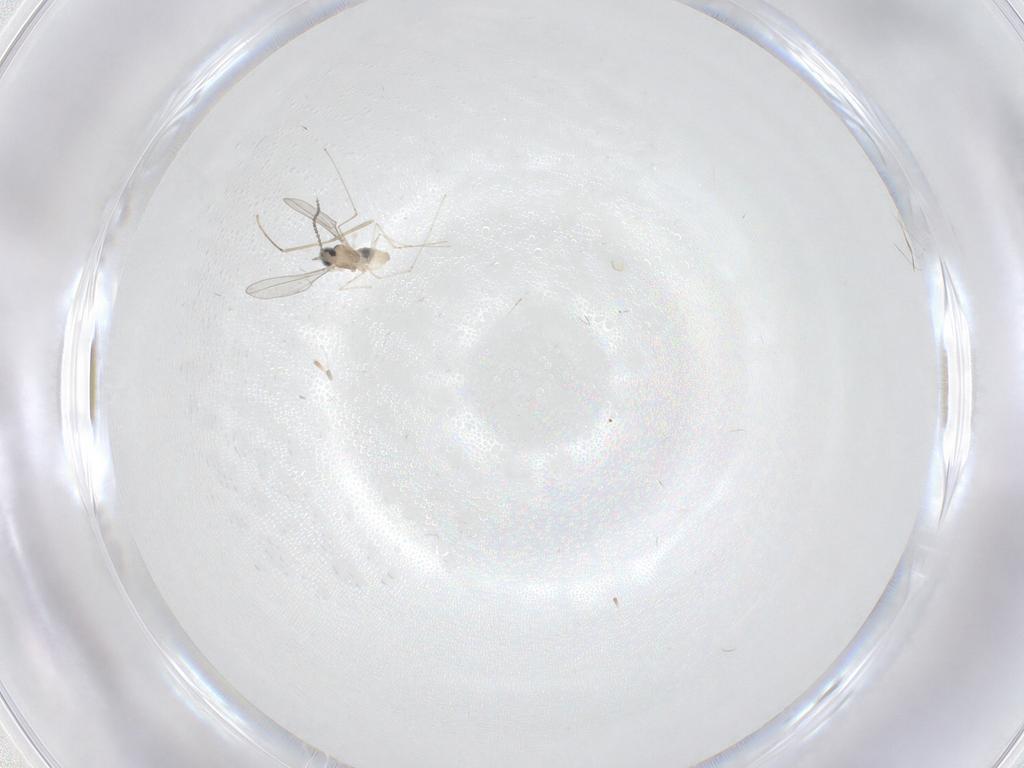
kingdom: Animalia
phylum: Arthropoda
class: Insecta
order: Diptera
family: Cecidomyiidae
